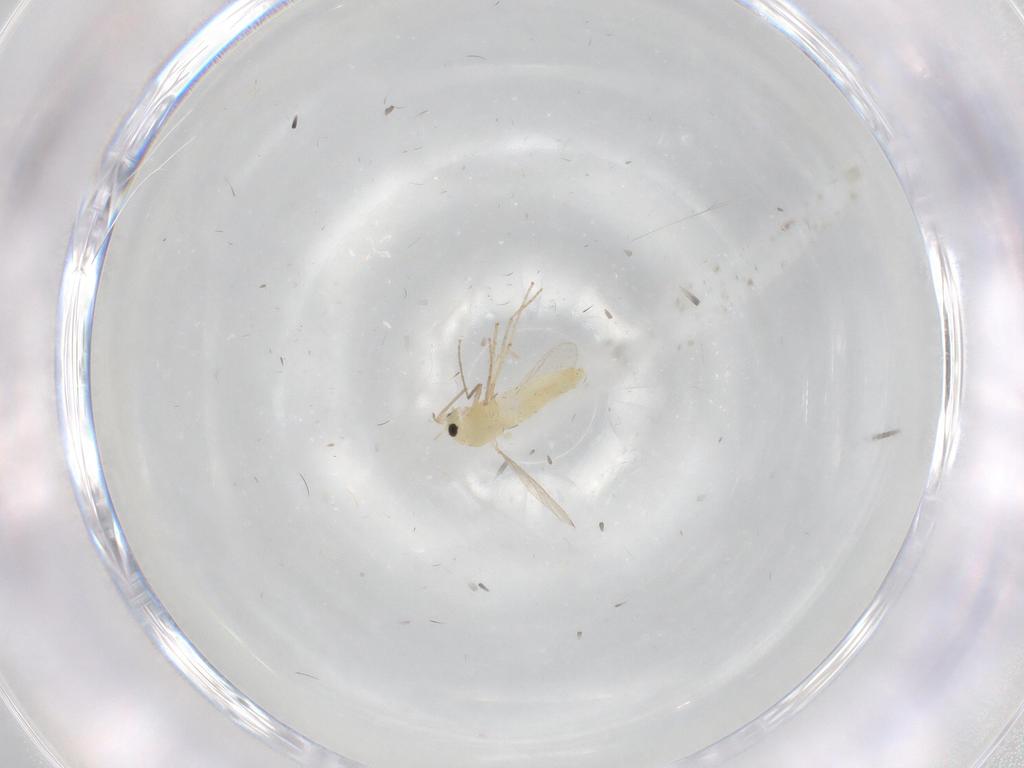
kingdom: Animalia
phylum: Arthropoda
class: Insecta
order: Diptera
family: Chironomidae
